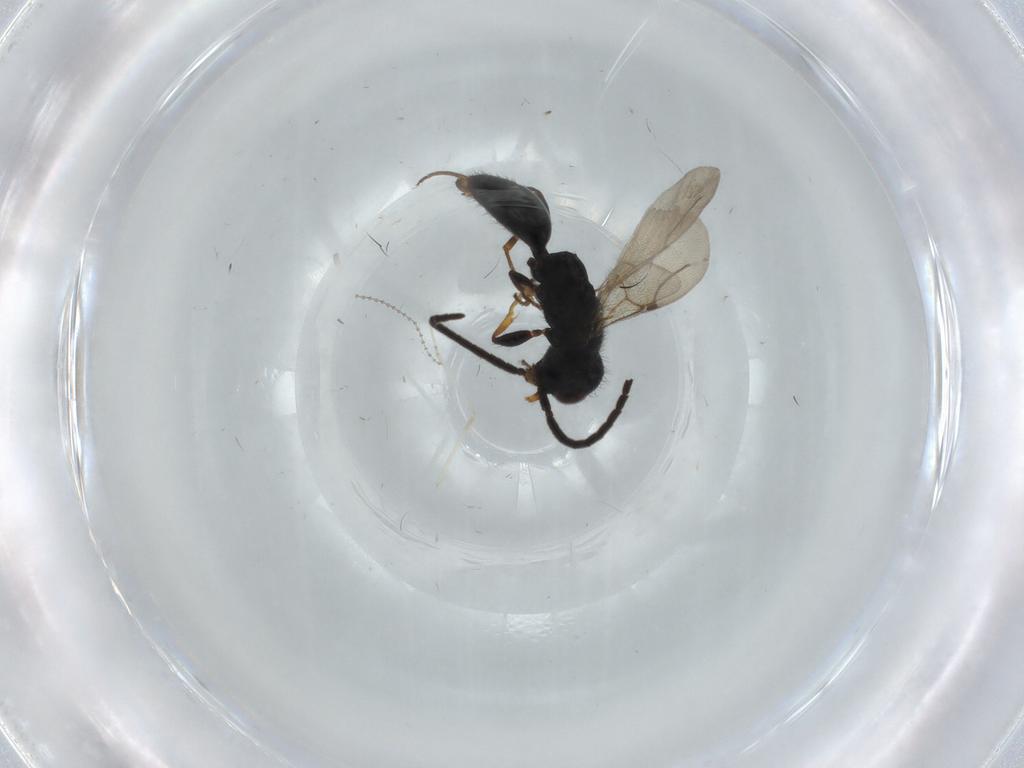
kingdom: Animalia
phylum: Arthropoda
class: Insecta
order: Hymenoptera
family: Bethylidae
